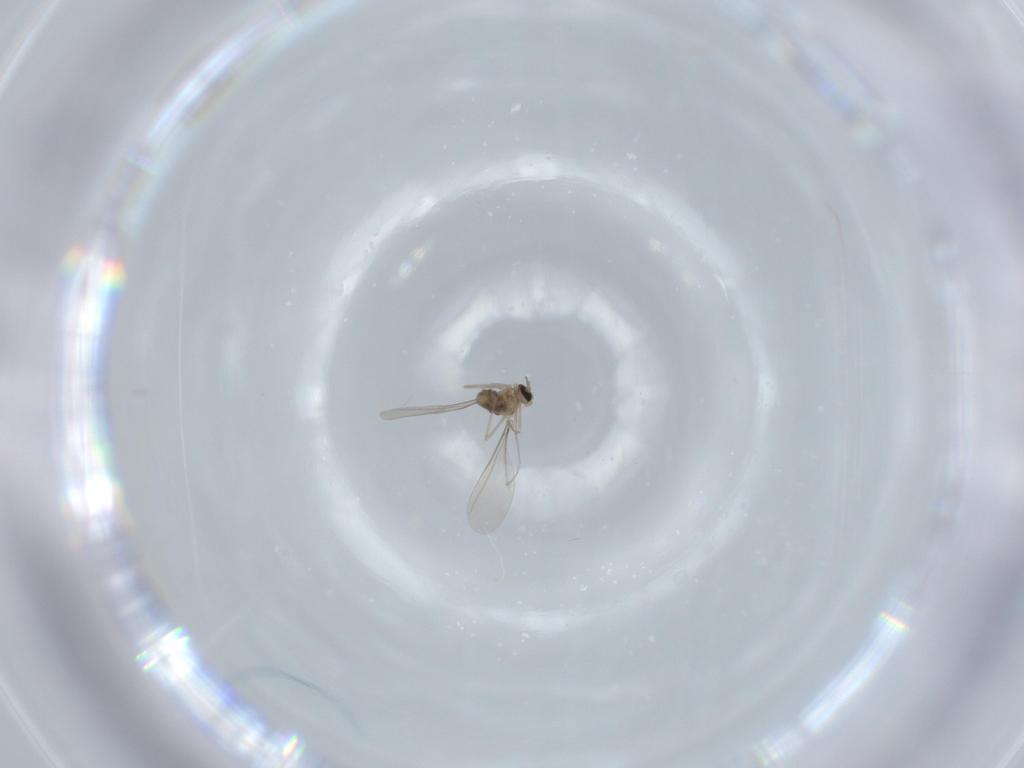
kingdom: Animalia
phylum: Arthropoda
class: Insecta
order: Diptera
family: Cecidomyiidae
